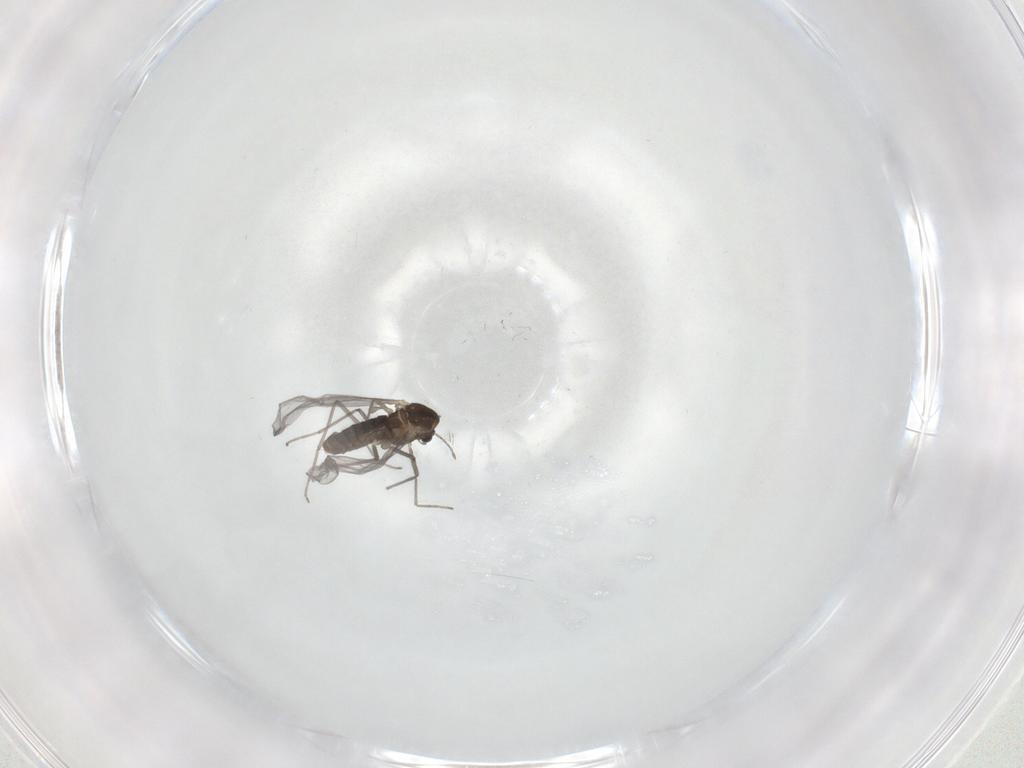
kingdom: Animalia
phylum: Arthropoda
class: Insecta
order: Diptera
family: Chironomidae
